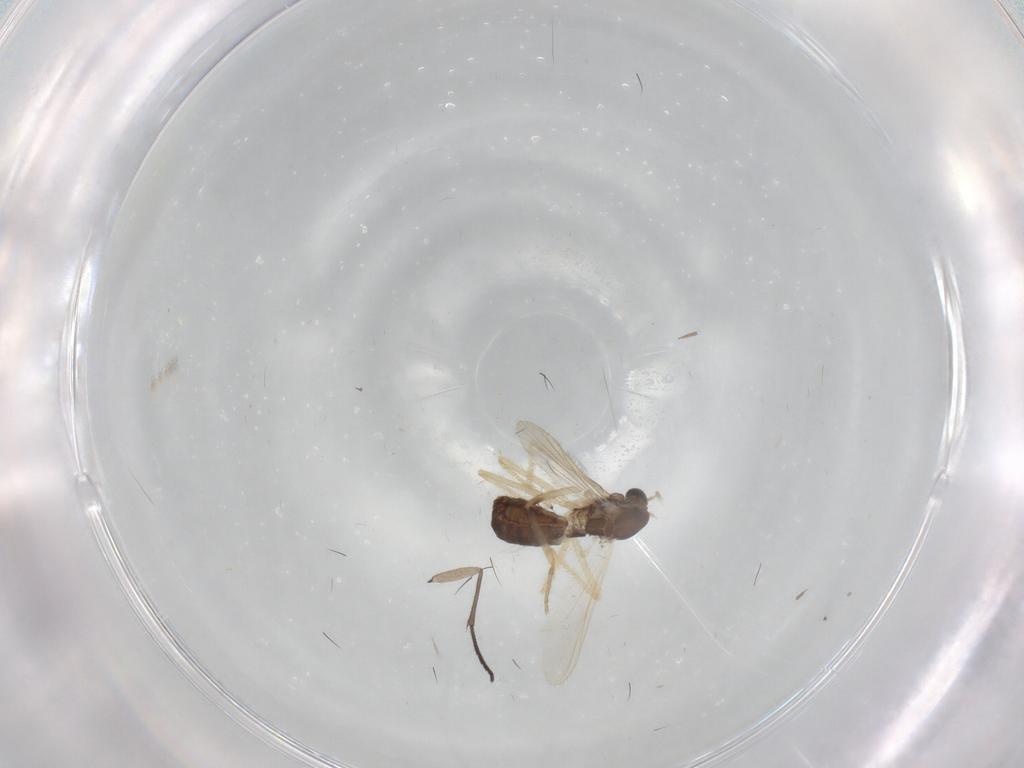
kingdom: Animalia
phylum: Arthropoda
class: Insecta
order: Diptera
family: Chironomidae
